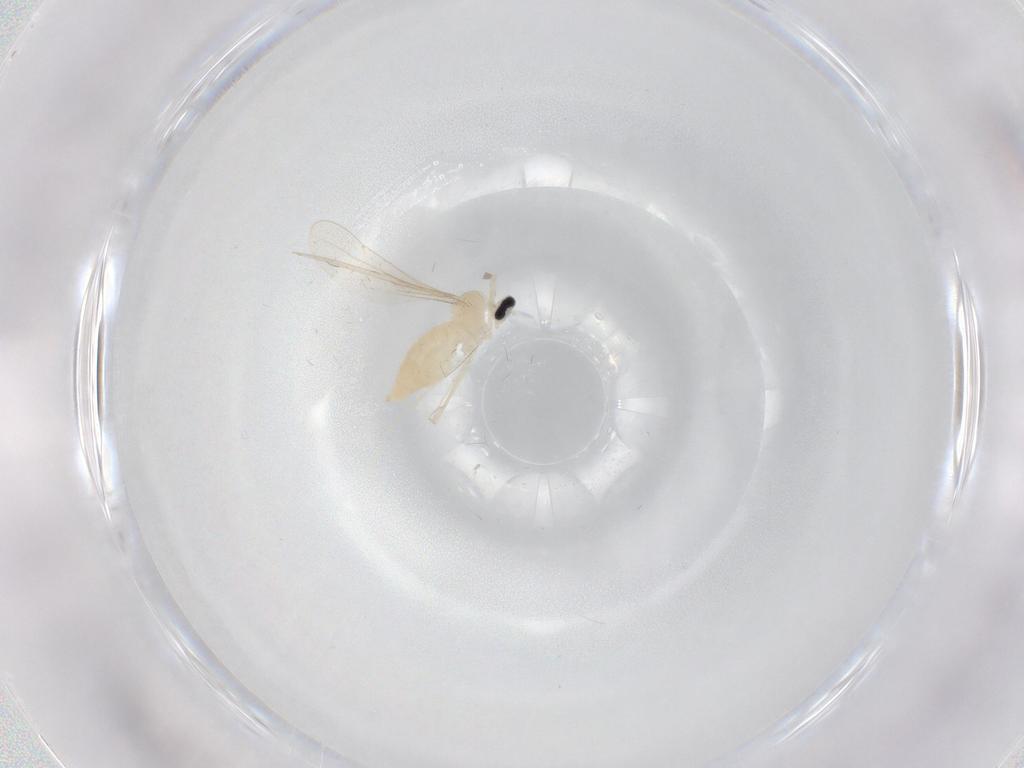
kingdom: Animalia
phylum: Arthropoda
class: Insecta
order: Diptera
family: Cecidomyiidae
